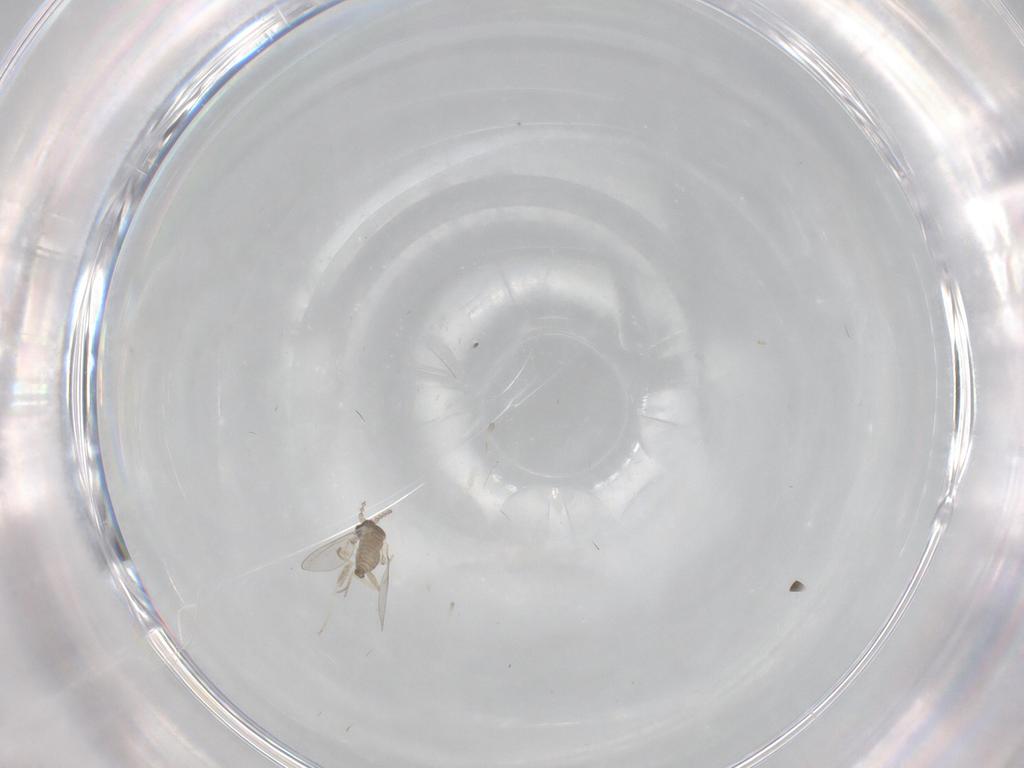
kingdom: Animalia
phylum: Arthropoda
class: Insecta
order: Diptera
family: Cecidomyiidae
